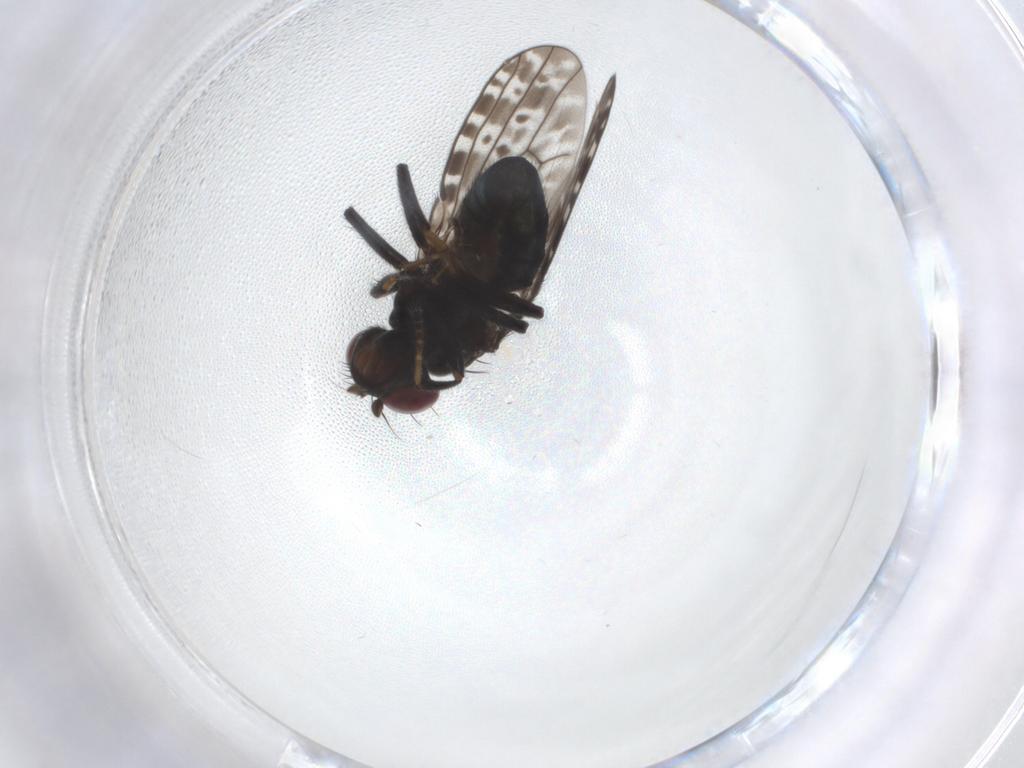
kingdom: Animalia
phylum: Arthropoda
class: Insecta
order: Diptera
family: Ephydridae
